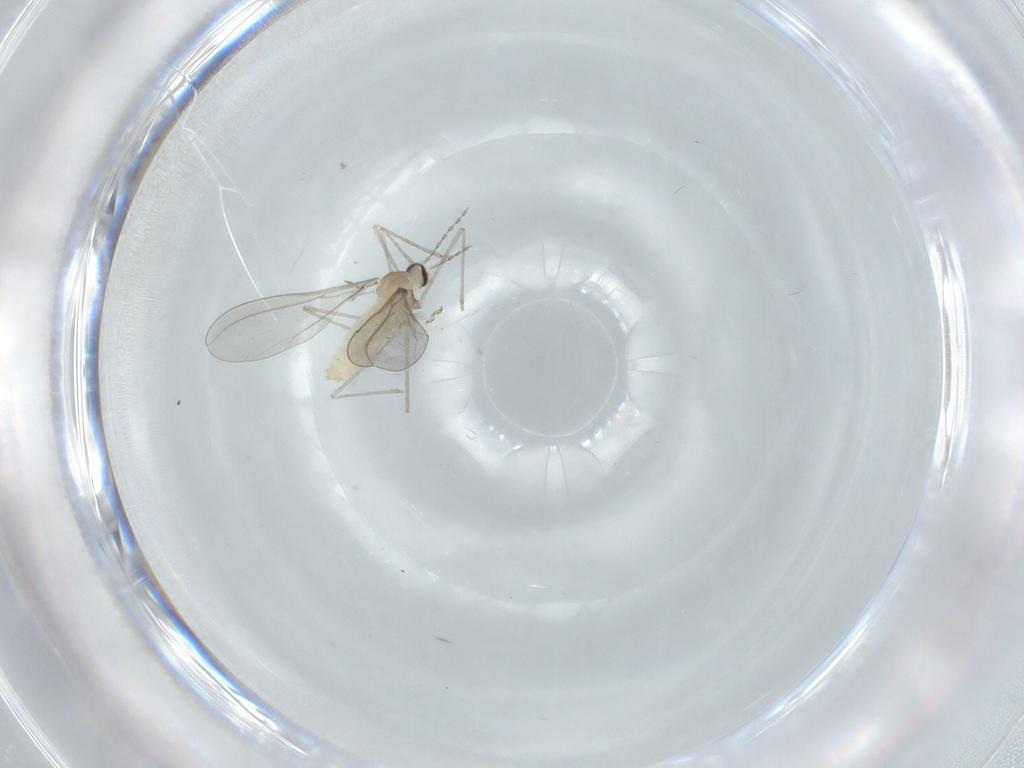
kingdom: Animalia
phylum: Arthropoda
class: Insecta
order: Diptera
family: Cecidomyiidae
